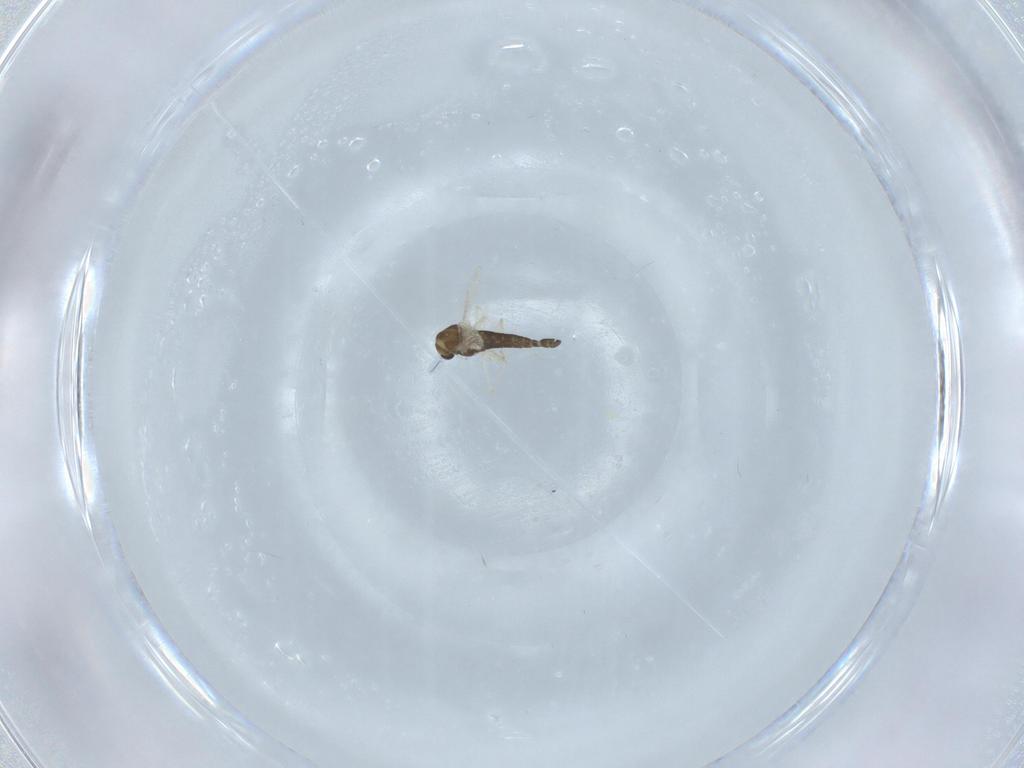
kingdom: Animalia
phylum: Arthropoda
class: Insecta
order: Diptera
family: Chironomidae
